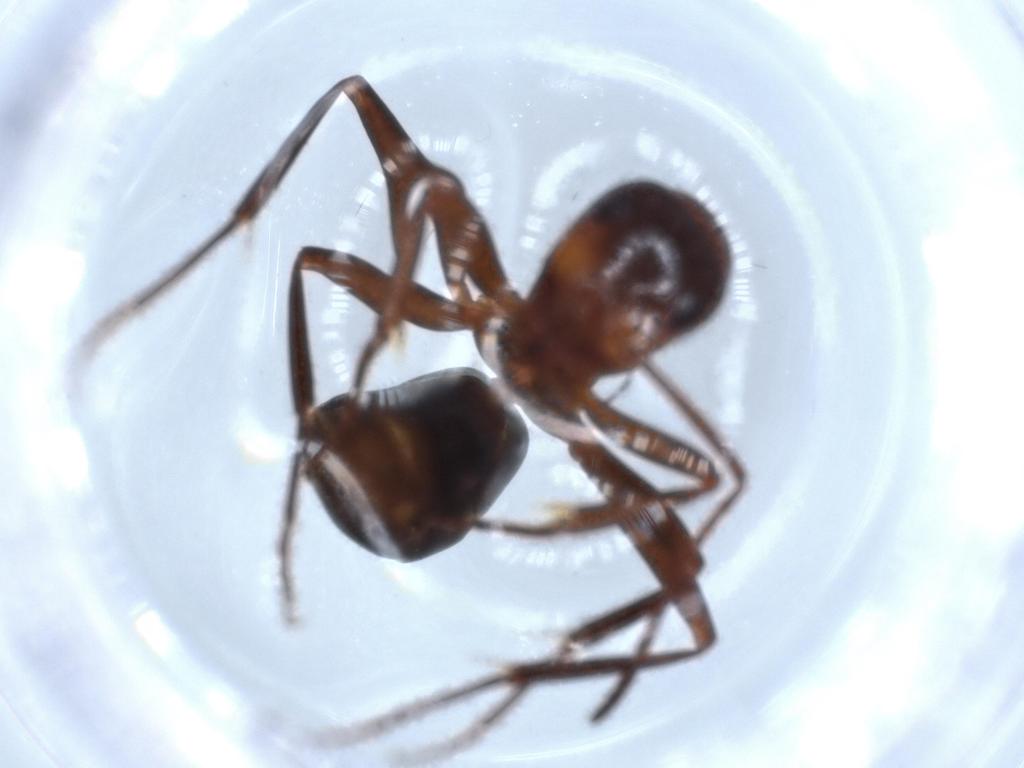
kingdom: Animalia
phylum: Arthropoda
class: Insecta
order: Hymenoptera
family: Formicidae
